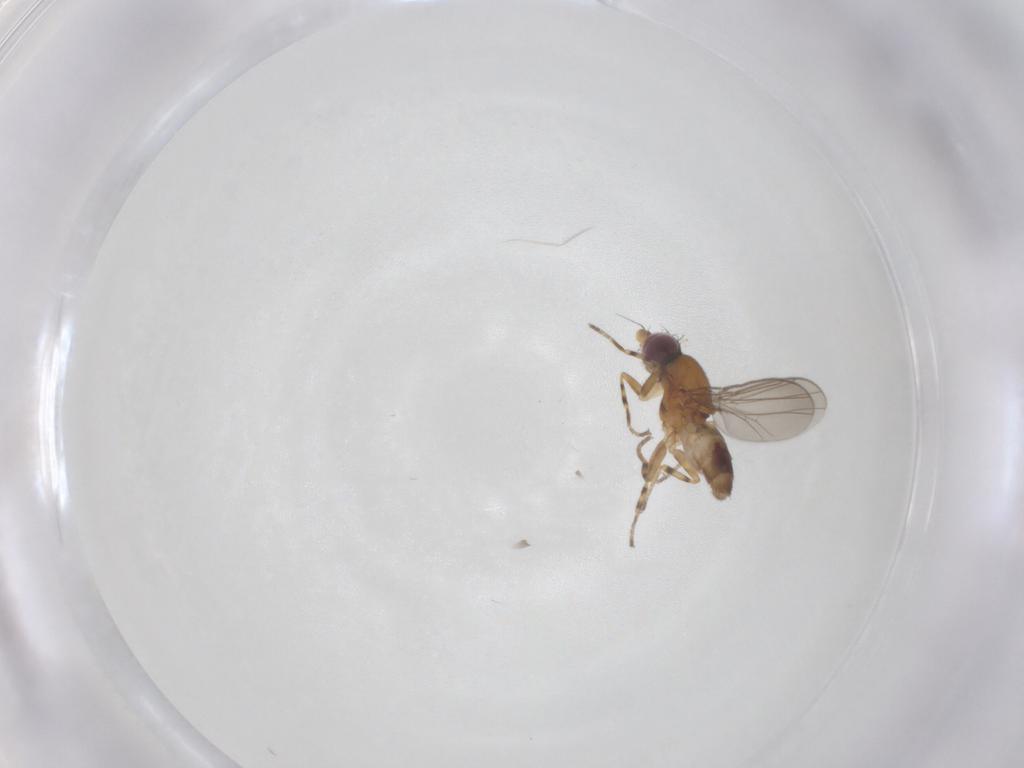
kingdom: Animalia
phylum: Arthropoda
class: Insecta
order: Diptera
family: Chloropidae
